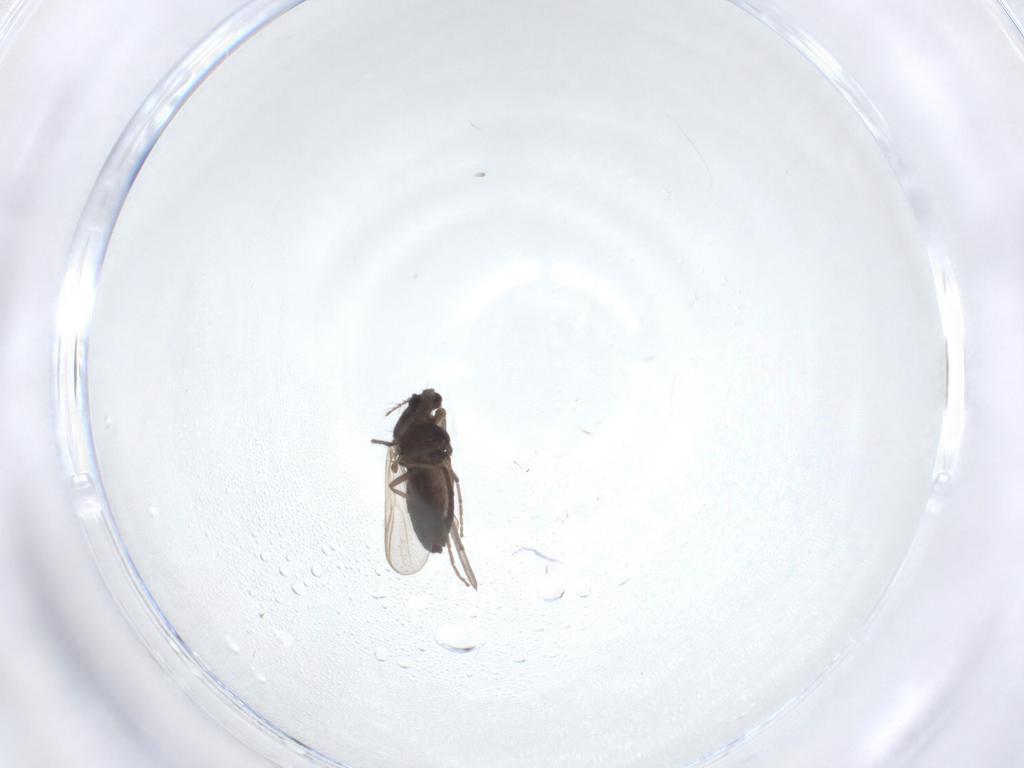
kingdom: Animalia
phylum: Arthropoda
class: Insecta
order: Diptera
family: Chironomidae
